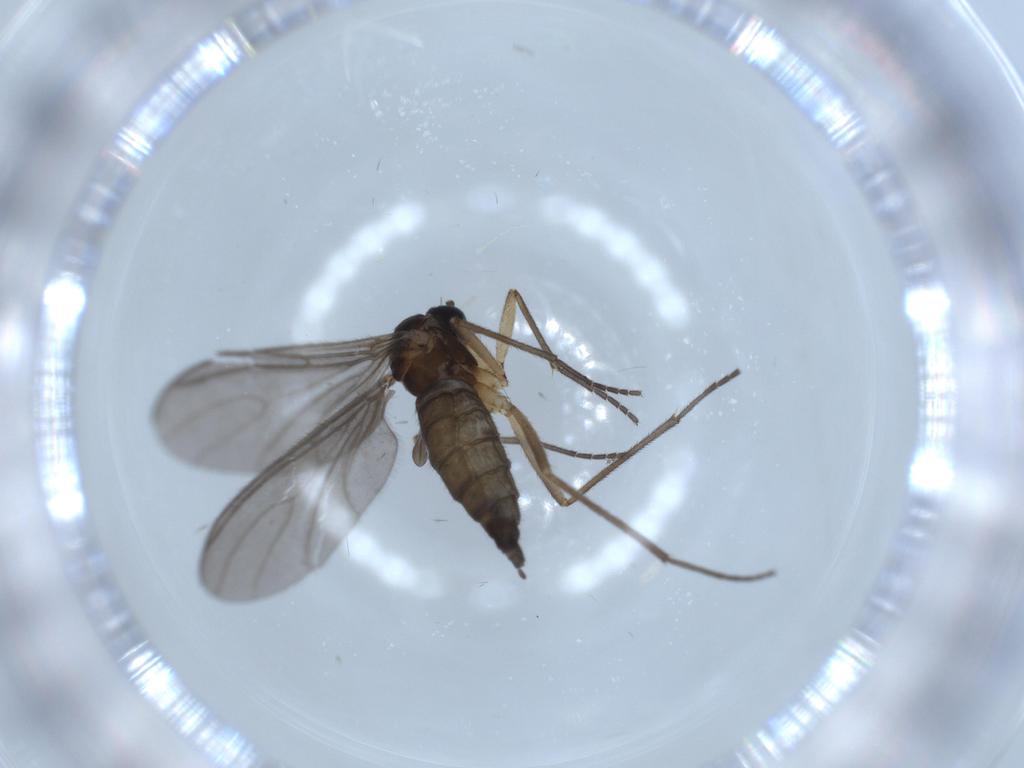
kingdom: Animalia
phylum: Arthropoda
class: Insecta
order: Diptera
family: Sciaridae
